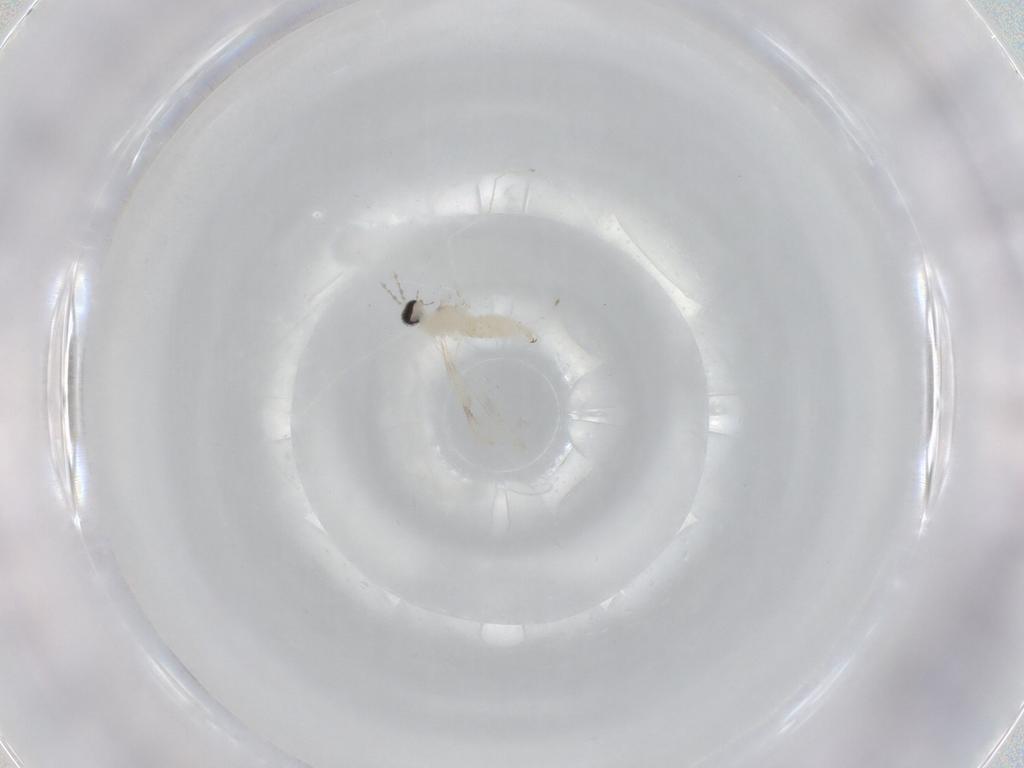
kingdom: Animalia
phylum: Arthropoda
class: Insecta
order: Diptera
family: Cecidomyiidae
